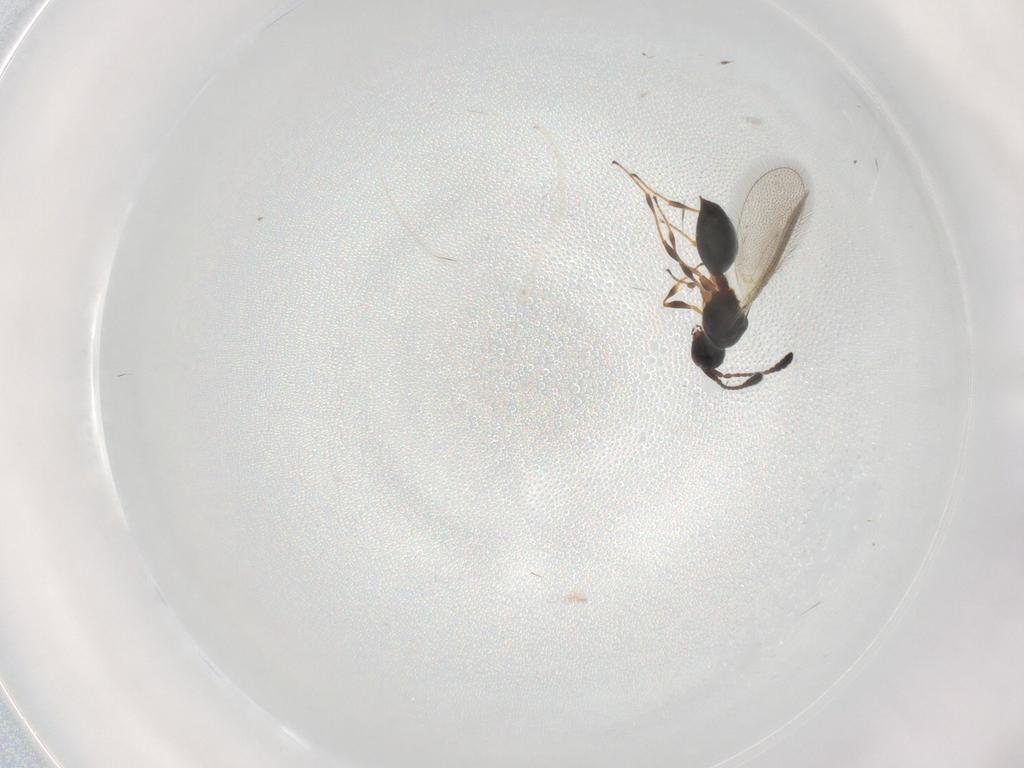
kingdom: Animalia
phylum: Arthropoda
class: Insecta
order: Hymenoptera
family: Diapriidae
